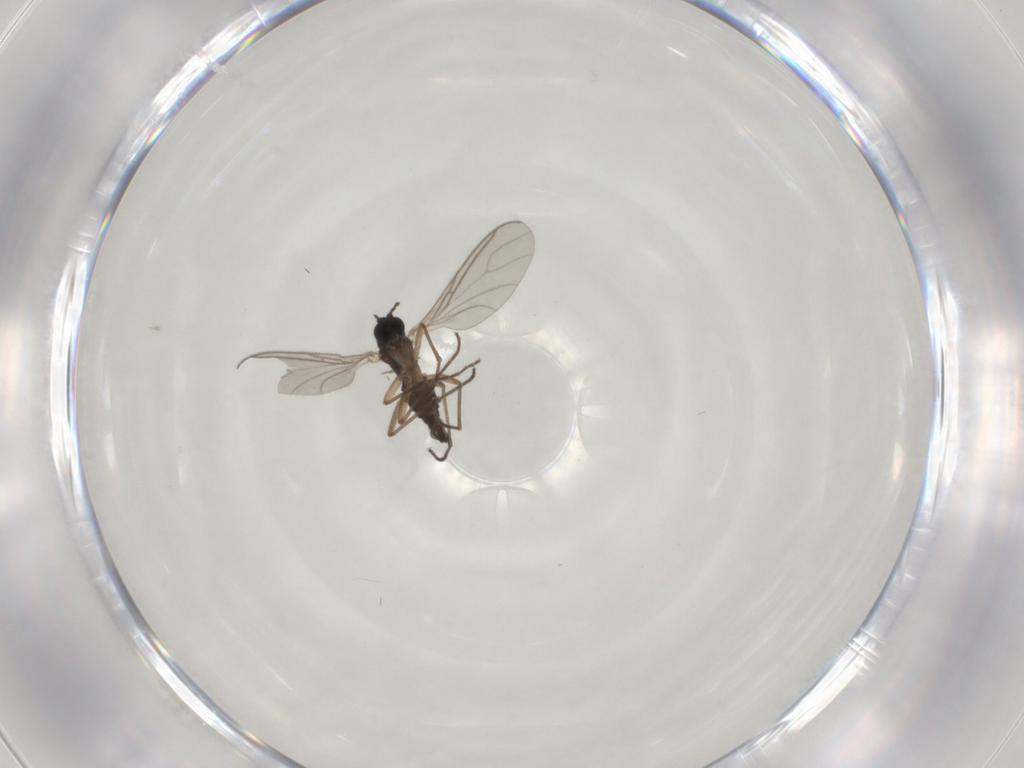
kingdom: Animalia
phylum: Arthropoda
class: Insecta
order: Diptera
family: Sciaridae
